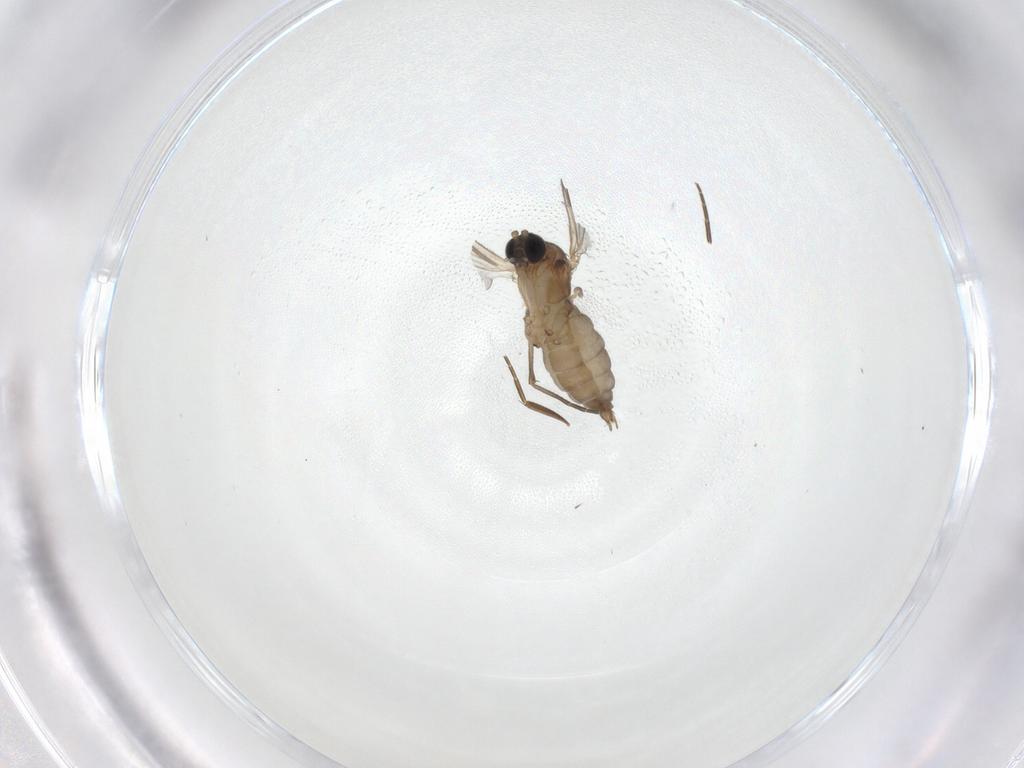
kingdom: Animalia
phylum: Arthropoda
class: Insecta
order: Diptera
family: Sciaridae
